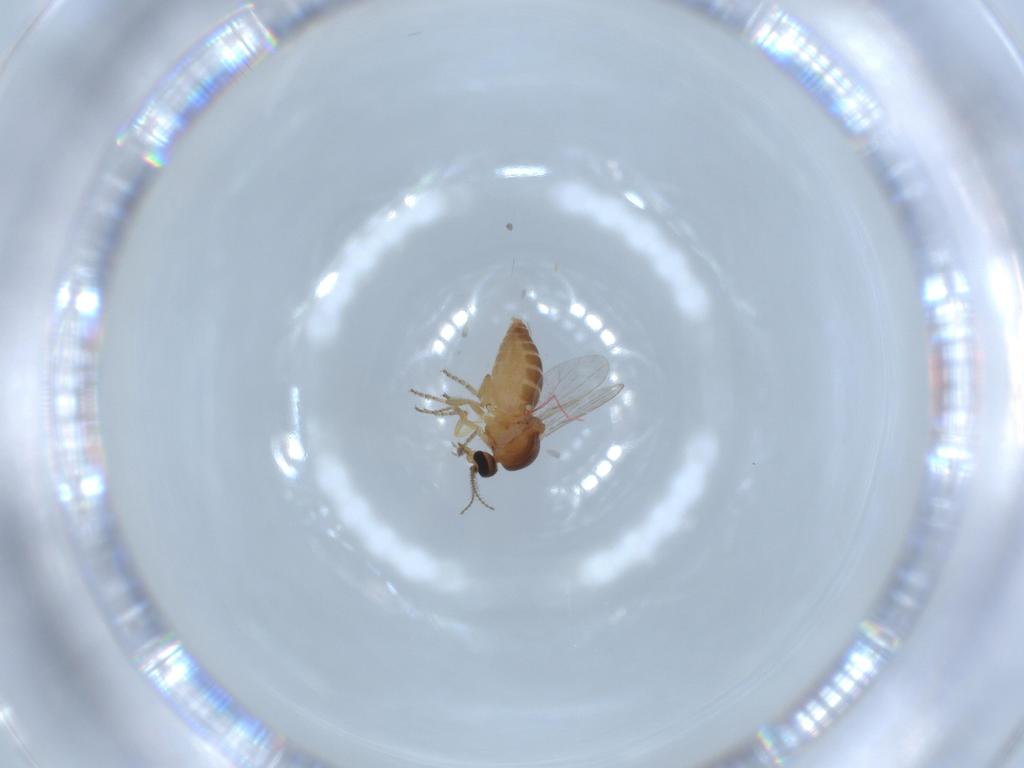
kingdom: Animalia
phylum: Arthropoda
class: Insecta
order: Diptera
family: Ceratopogonidae
